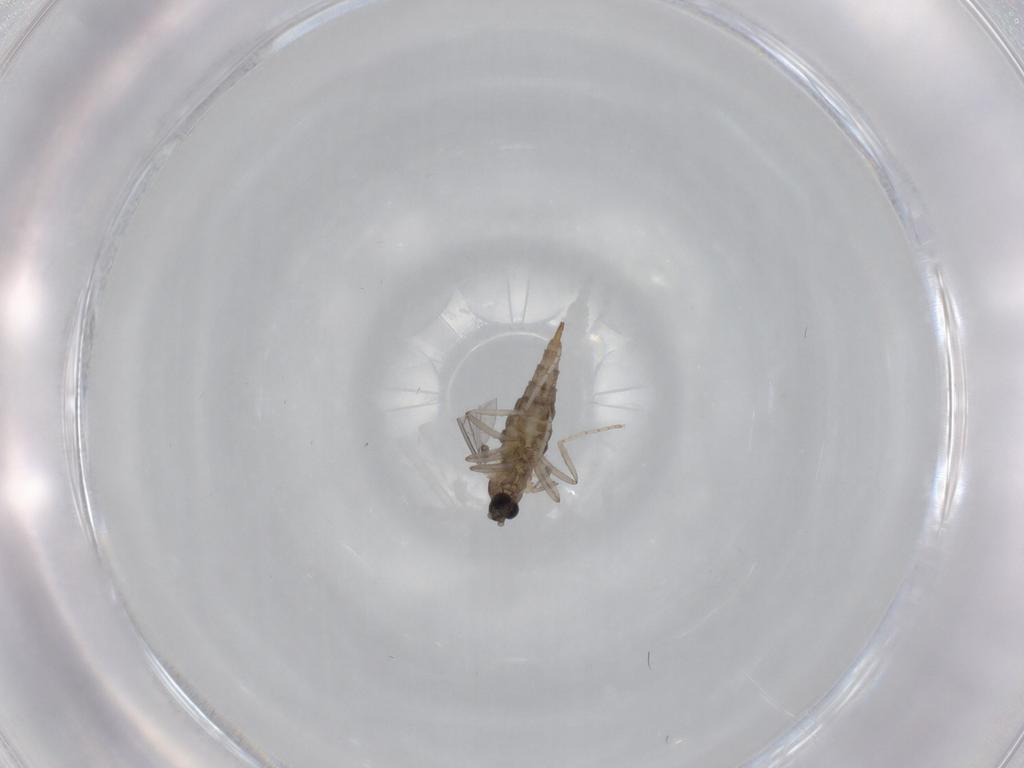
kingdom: Animalia
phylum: Arthropoda
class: Insecta
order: Diptera
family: Cecidomyiidae
